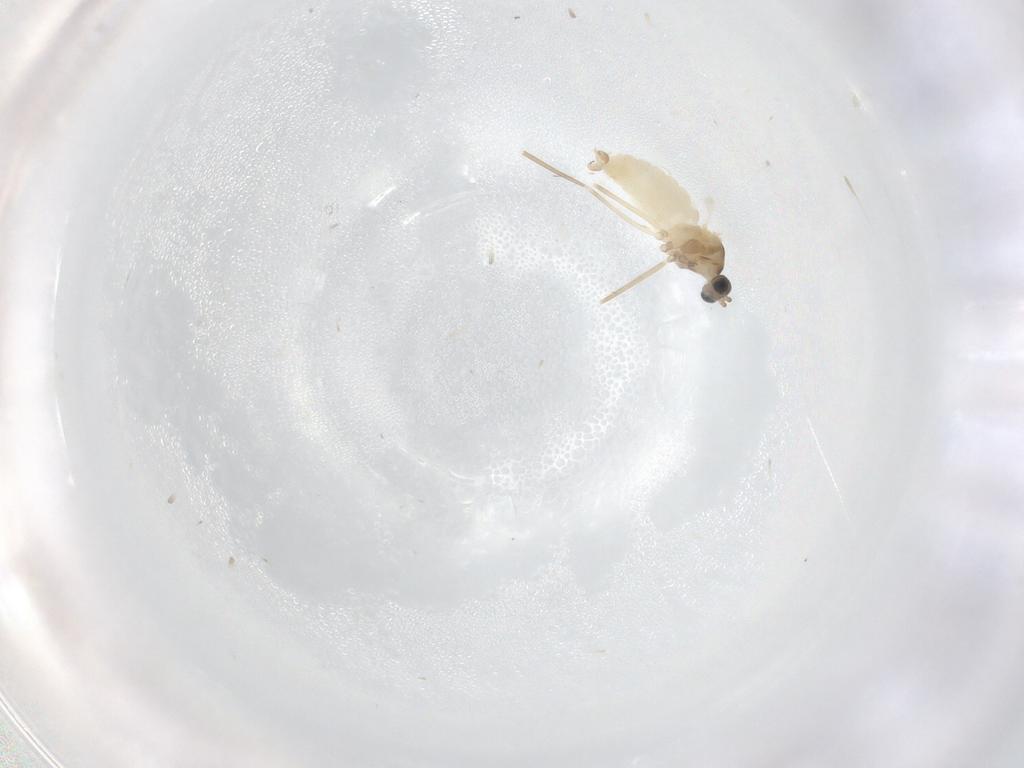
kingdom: Animalia
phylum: Arthropoda
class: Insecta
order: Diptera
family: Cecidomyiidae
